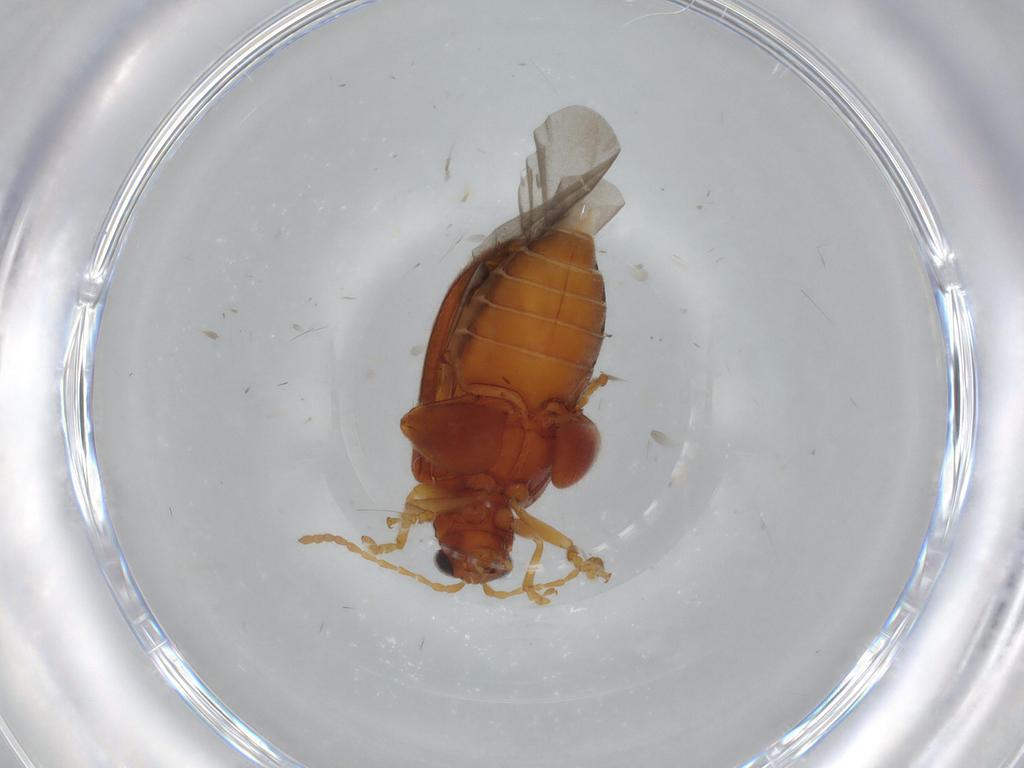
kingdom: Animalia
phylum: Arthropoda
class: Insecta
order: Coleoptera
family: Chrysomelidae
